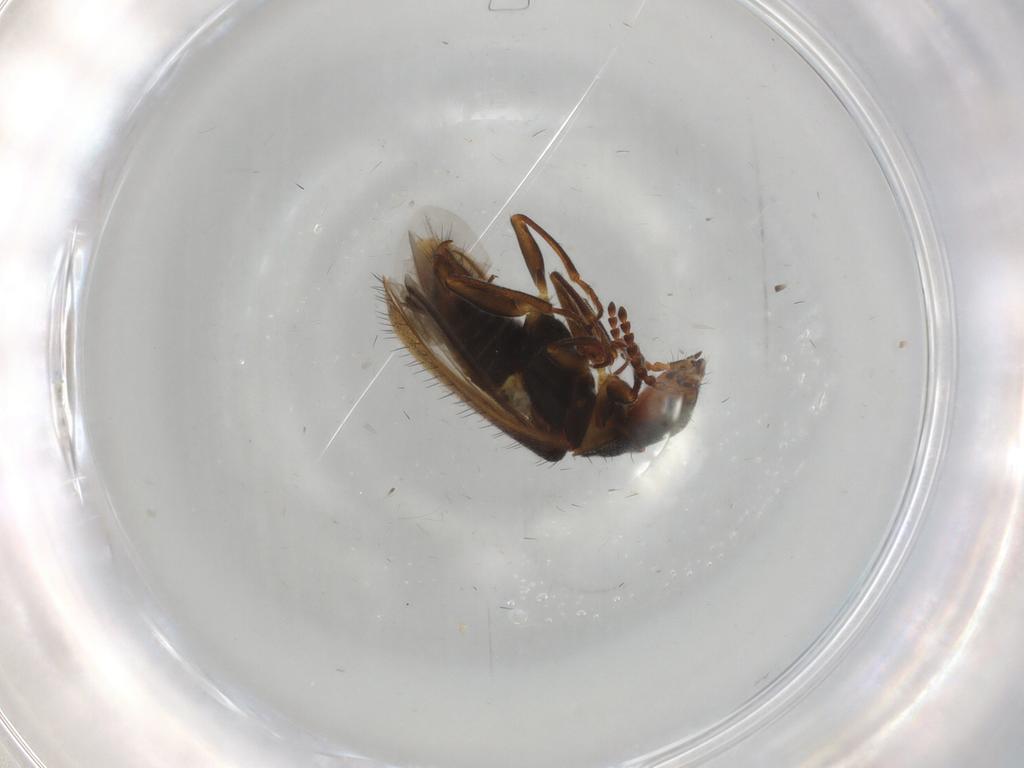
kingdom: Animalia
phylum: Arthropoda
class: Insecta
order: Coleoptera
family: Melyridae
